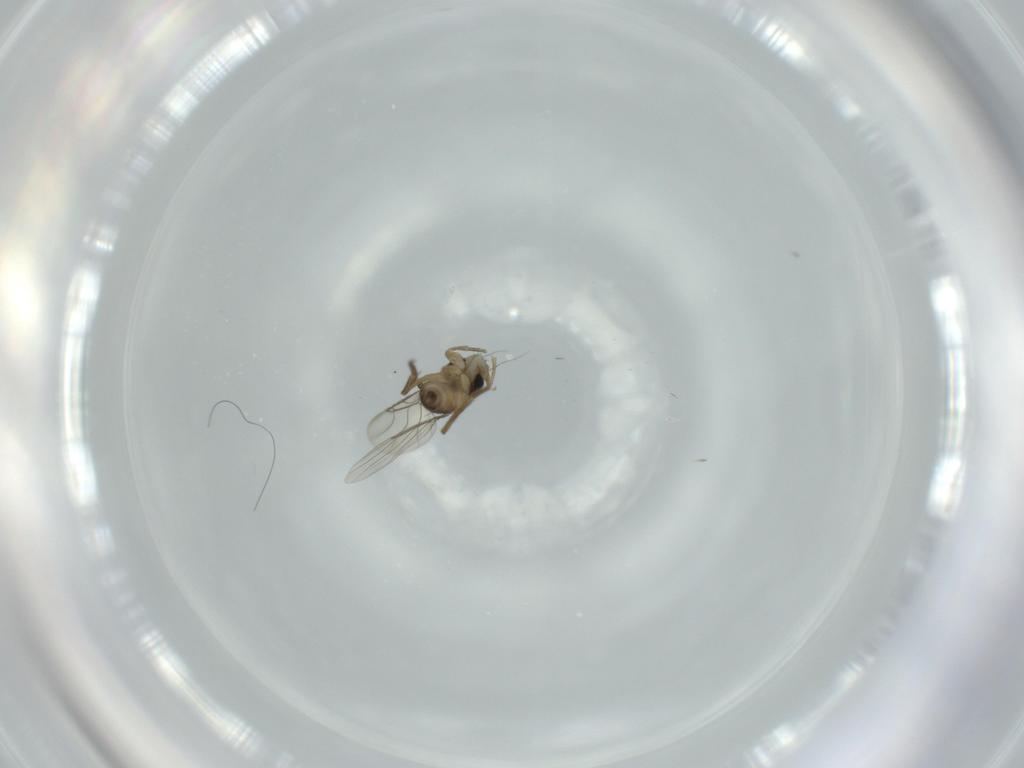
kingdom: Animalia
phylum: Arthropoda
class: Insecta
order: Diptera
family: Phoridae
